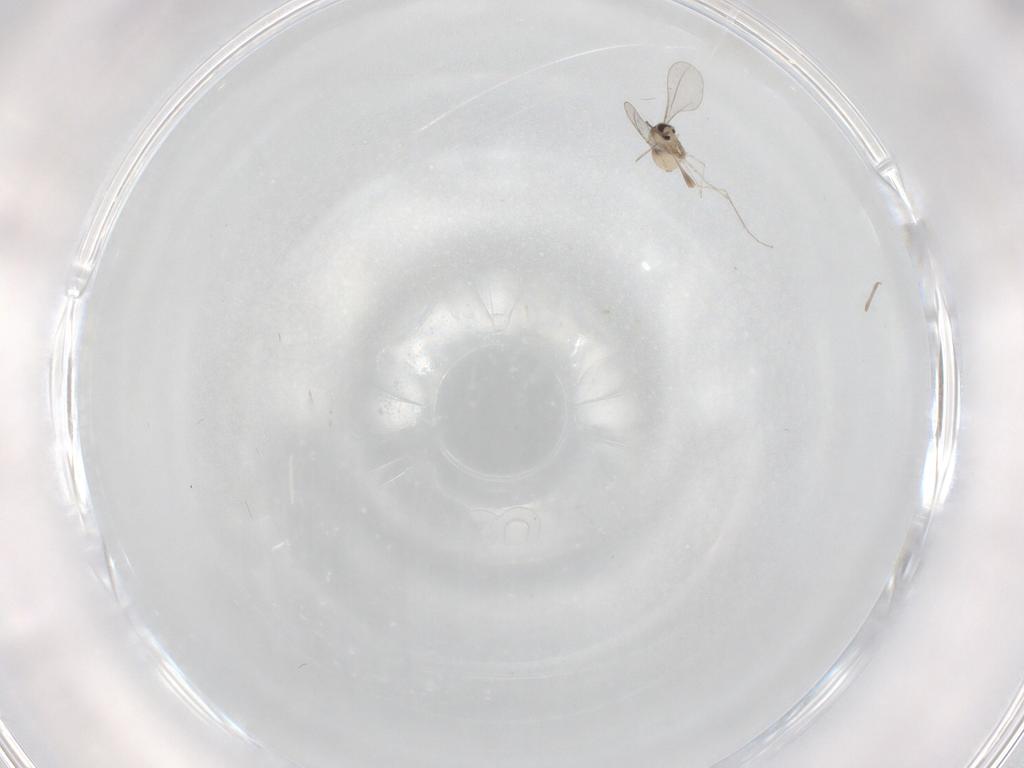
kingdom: Animalia
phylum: Arthropoda
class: Insecta
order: Diptera
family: Cecidomyiidae
